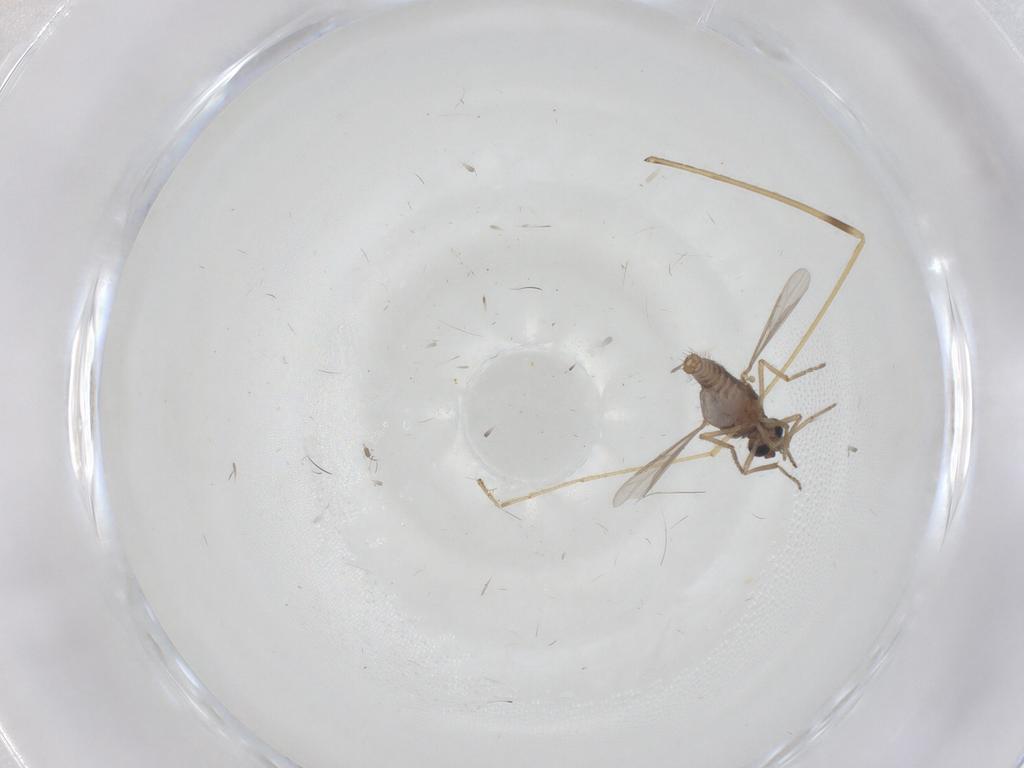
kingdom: Animalia
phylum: Arthropoda
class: Insecta
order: Diptera
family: Ceratopogonidae
